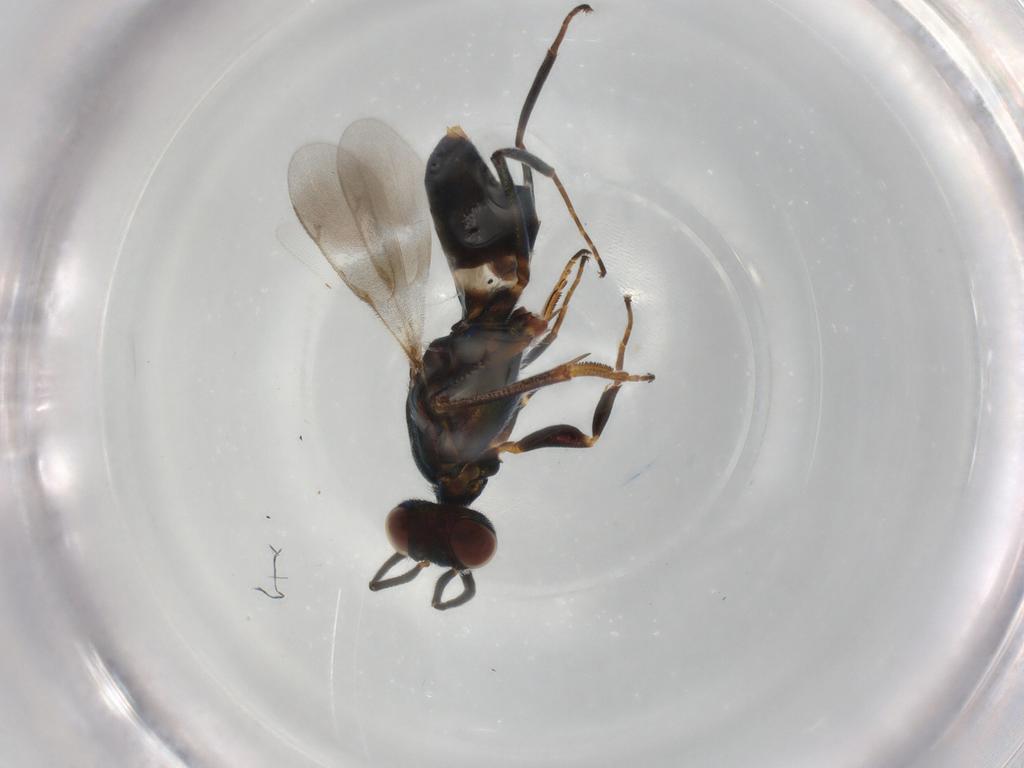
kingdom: Animalia
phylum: Arthropoda
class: Insecta
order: Hymenoptera
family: Eupelmidae
